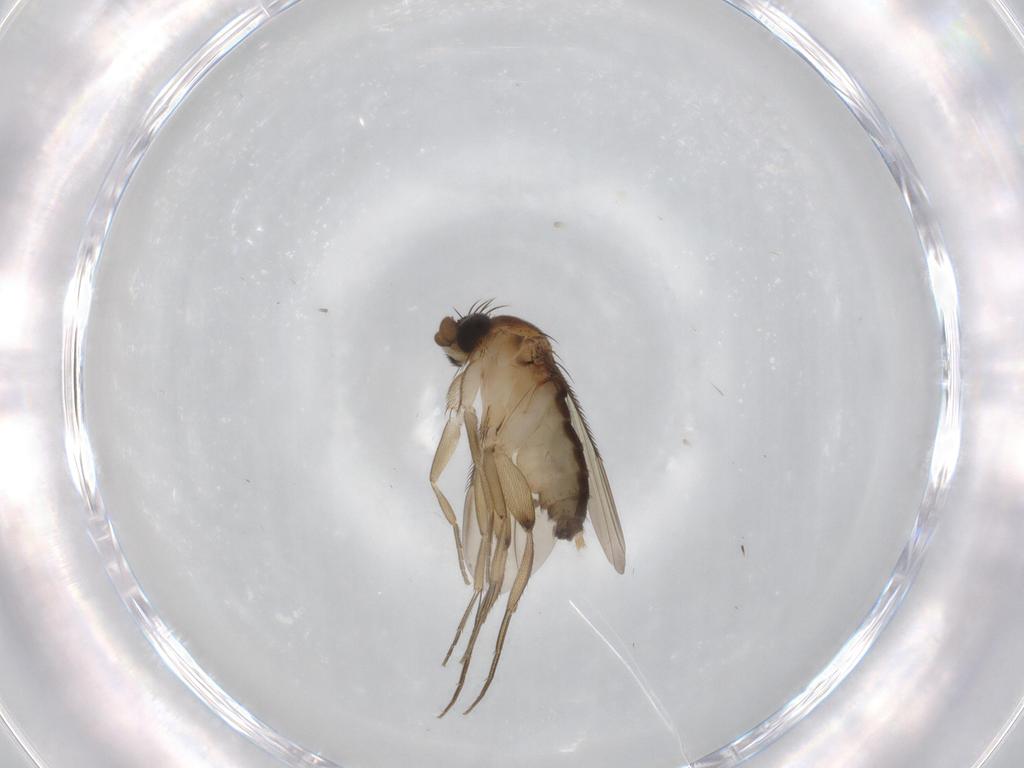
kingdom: Animalia
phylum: Arthropoda
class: Insecta
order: Diptera
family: Phoridae
